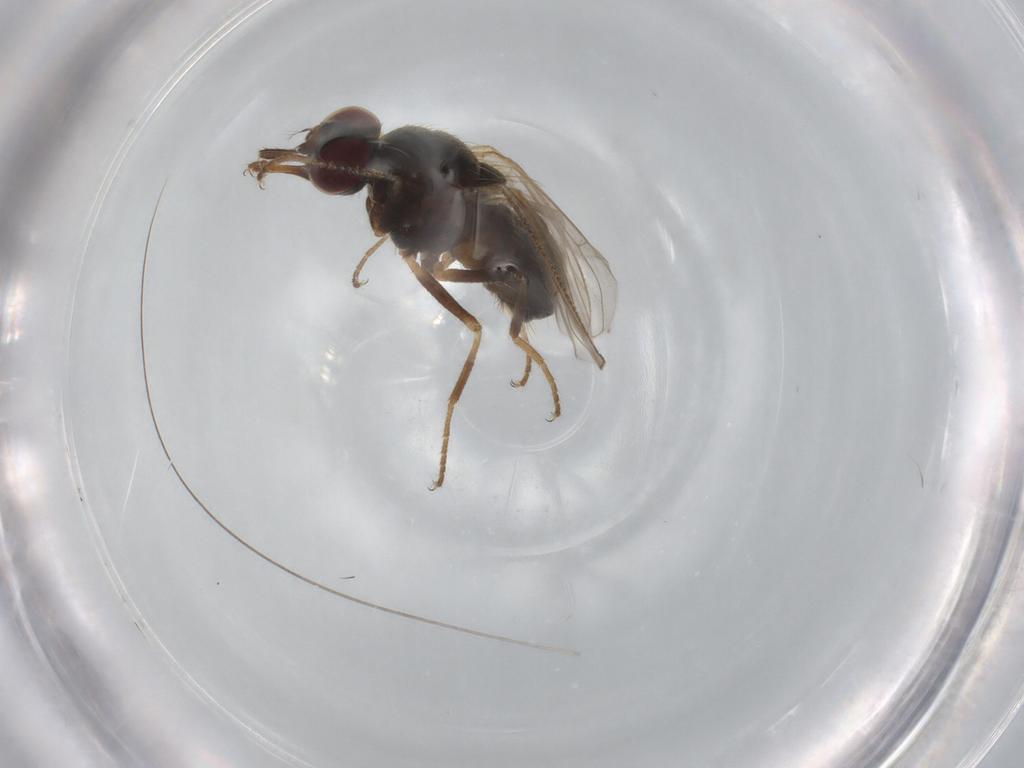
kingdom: Animalia
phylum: Arthropoda
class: Insecta
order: Diptera
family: Muscidae
